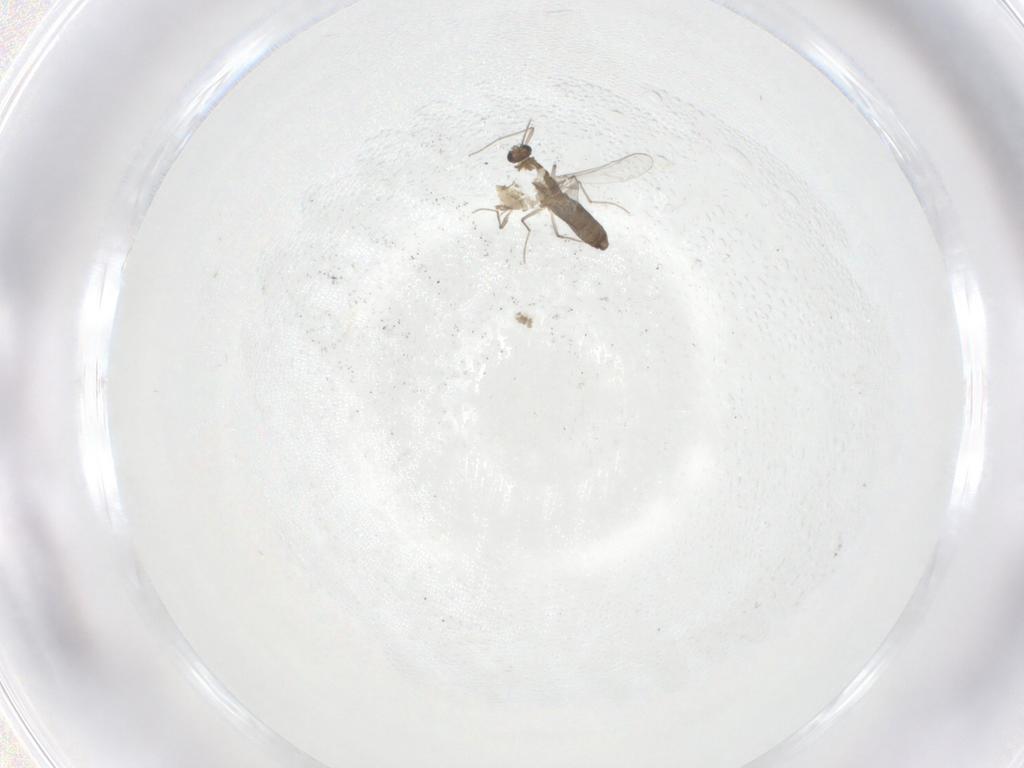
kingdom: Animalia
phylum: Arthropoda
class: Insecta
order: Diptera
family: Chironomidae
